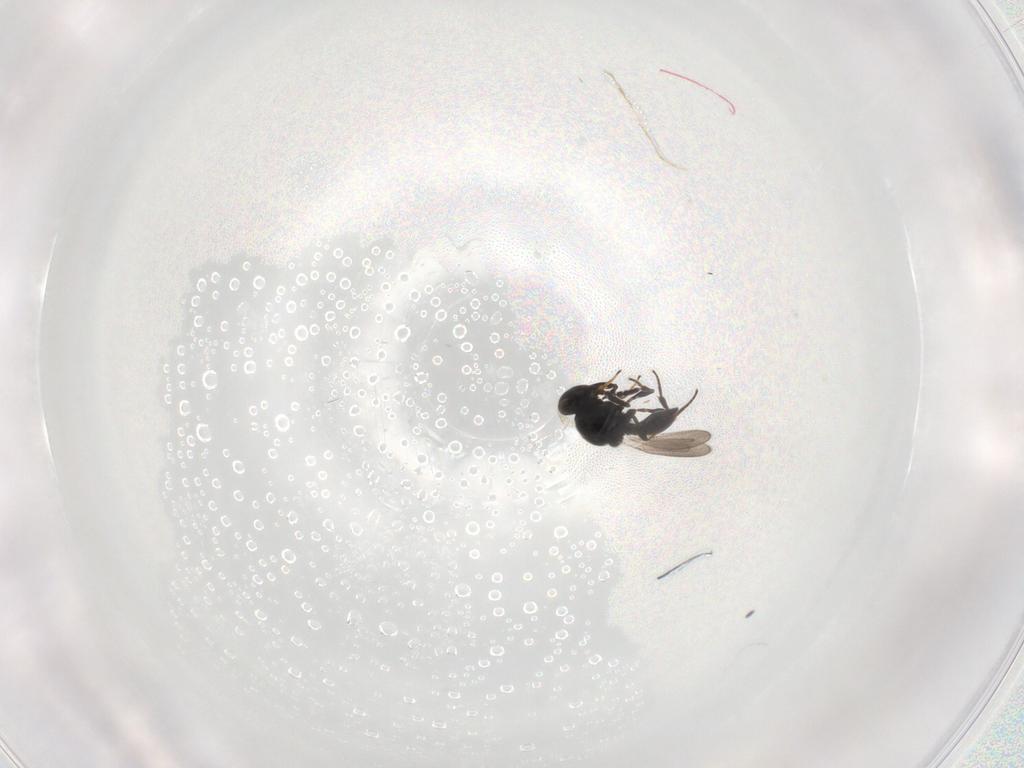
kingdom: Animalia
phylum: Arthropoda
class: Insecta
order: Hymenoptera
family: Platygastridae
